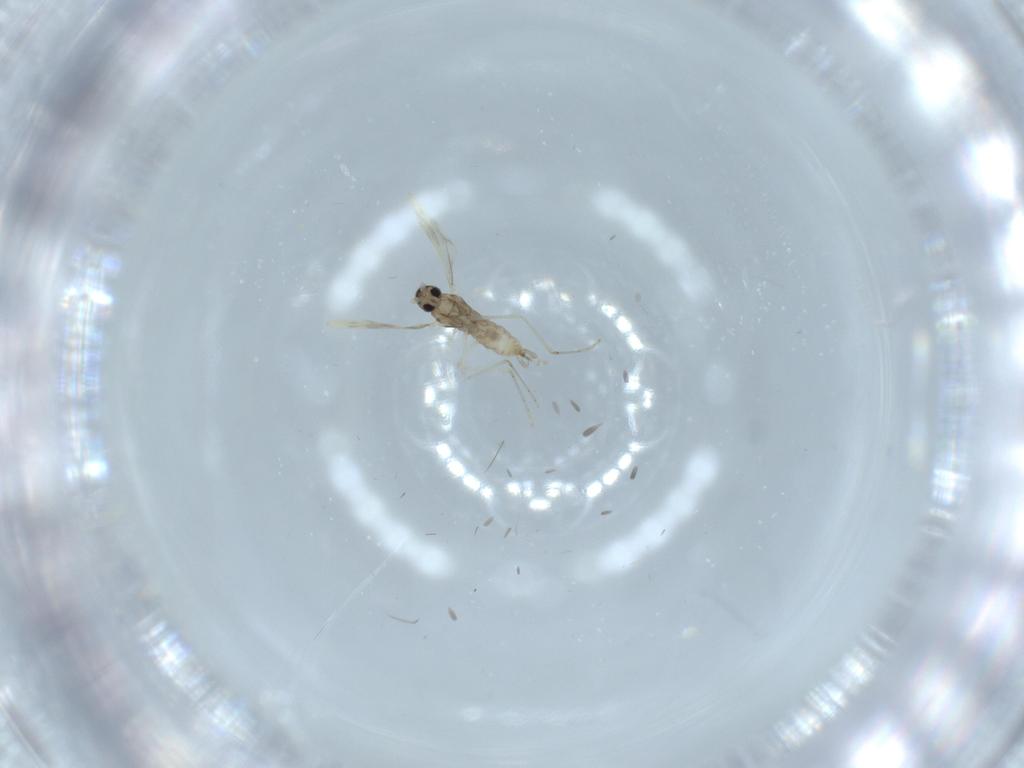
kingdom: Animalia
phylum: Arthropoda
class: Insecta
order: Diptera
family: Cecidomyiidae
